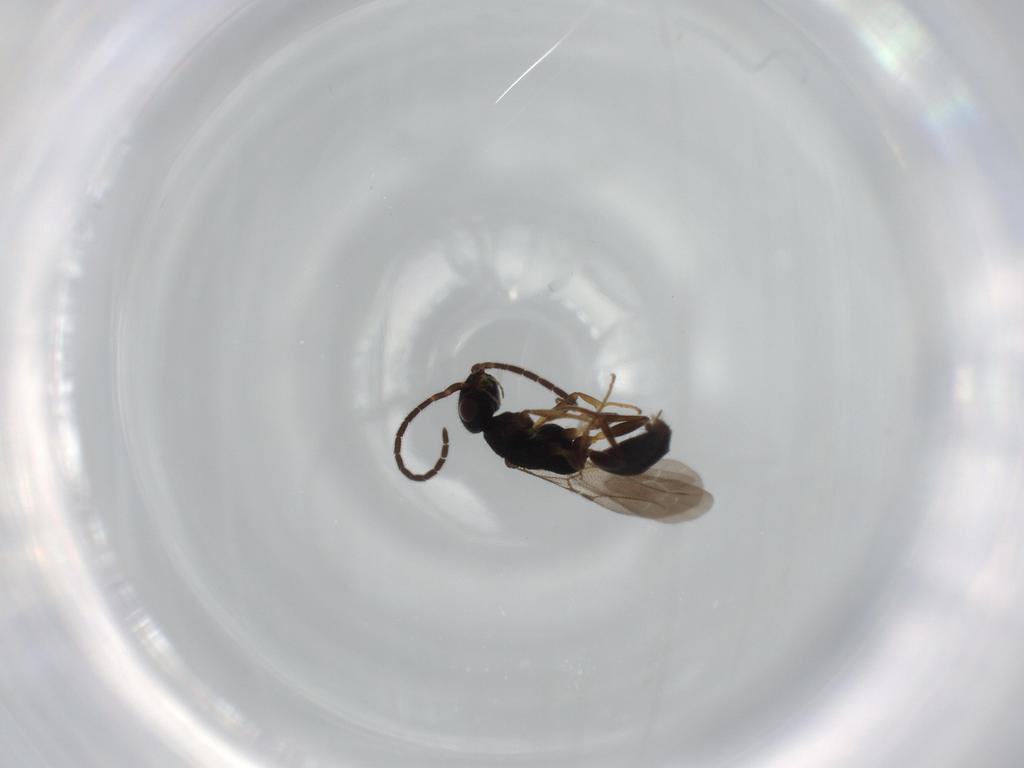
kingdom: Animalia
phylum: Arthropoda
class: Insecta
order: Hymenoptera
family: Bethylidae
